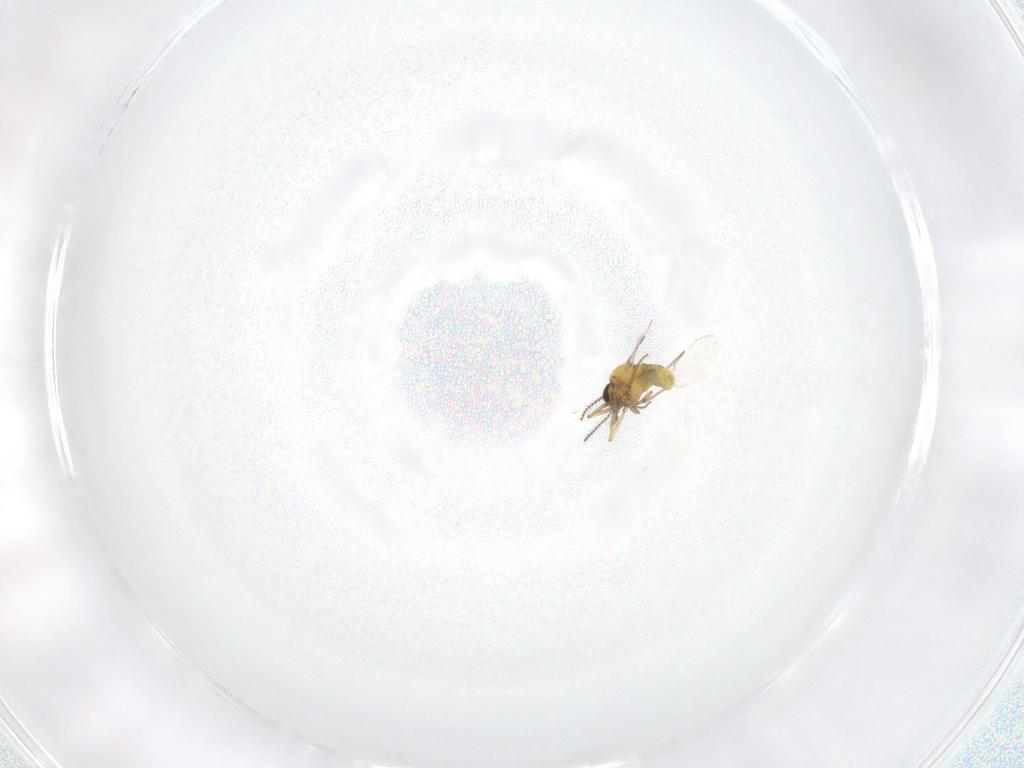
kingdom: Animalia
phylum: Arthropoda
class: Insecta
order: Diptera
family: Ceratopogonidae
